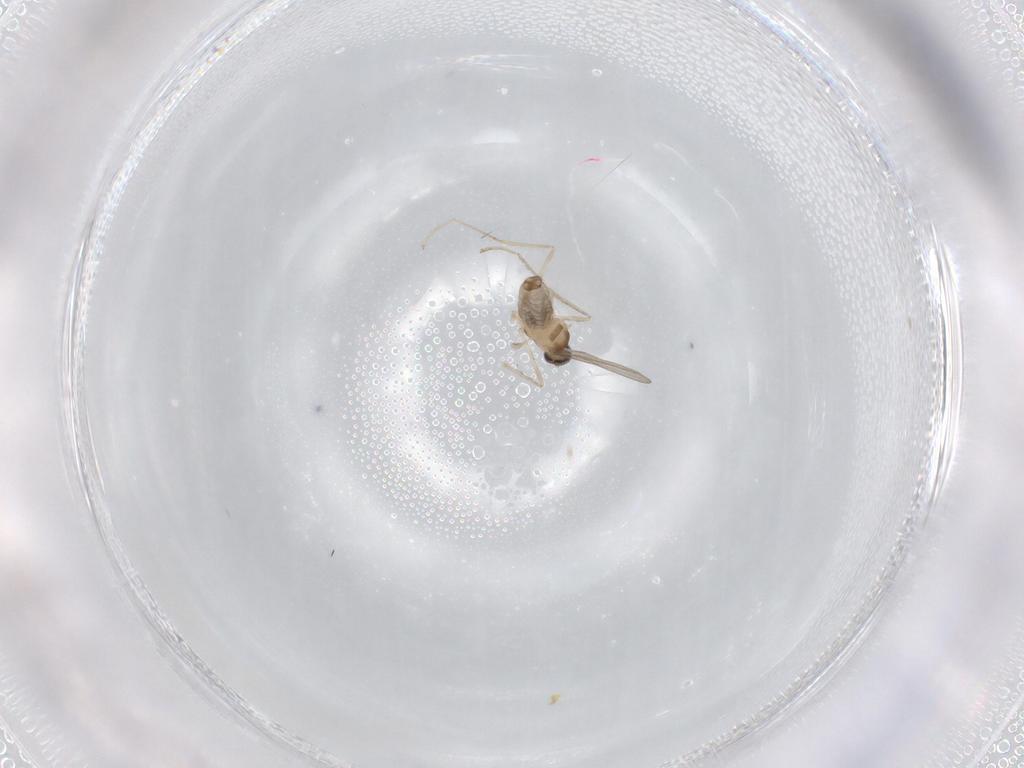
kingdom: Animalia
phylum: Arthropoda
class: Insecta
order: Diptera
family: Cecidomyiidae
